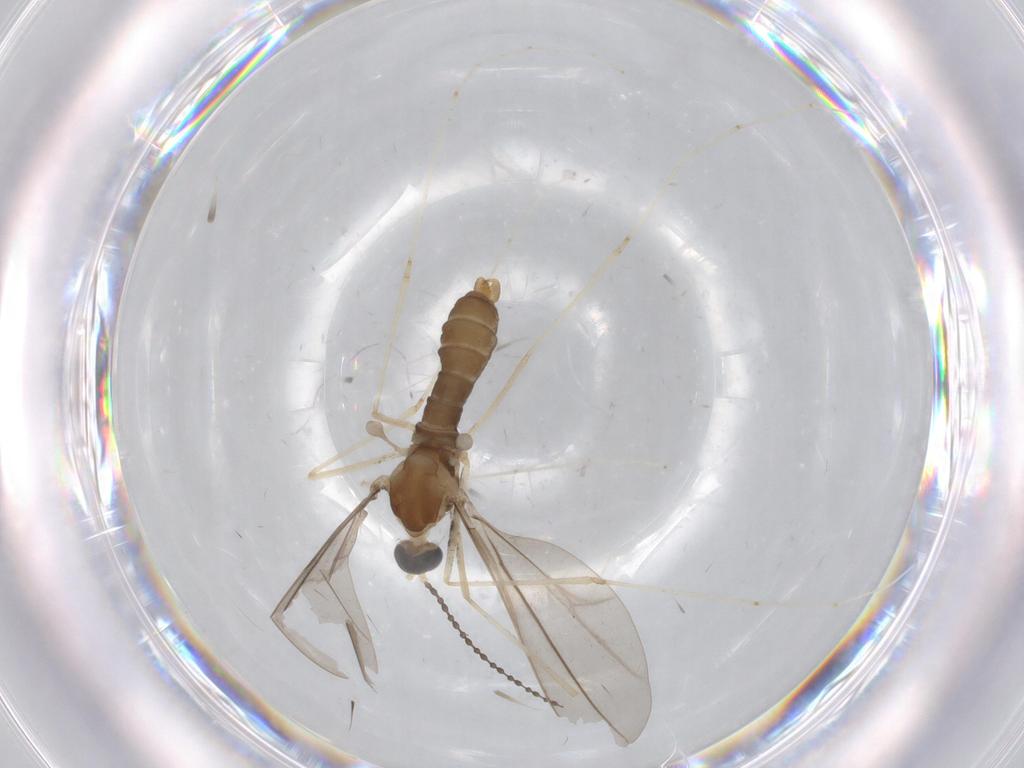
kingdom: Animalia
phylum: Arthropoda
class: Insecta
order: Diptera
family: Cecidomyiidae
